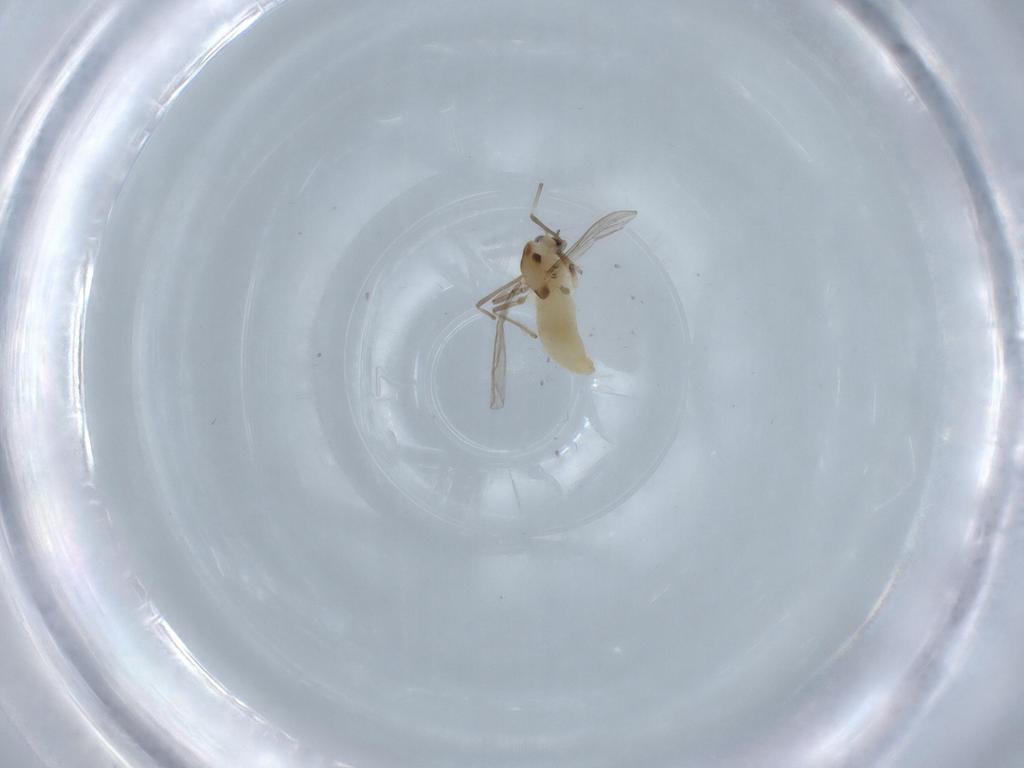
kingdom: Animalia
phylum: Arthropoda
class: Insecta
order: Diptera
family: Chironomidae
